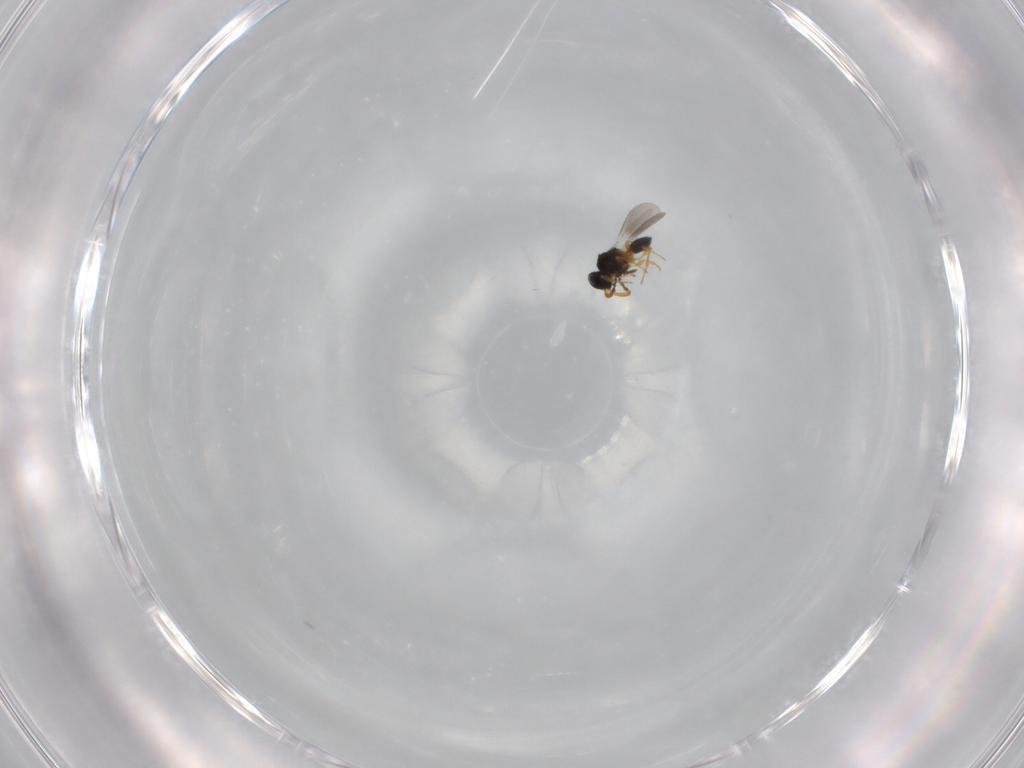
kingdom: Animalia
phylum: Arthropoda
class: Insecta
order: Hymenoptera
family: Platygastridae
